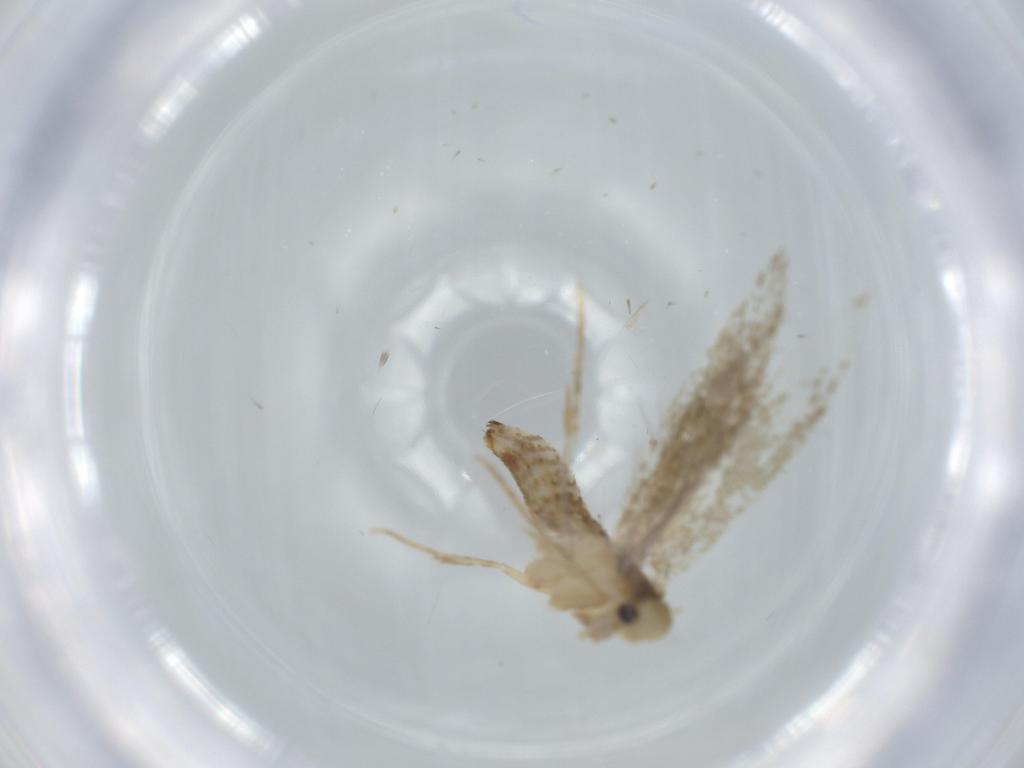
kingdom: Animalia
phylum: Arthropoda
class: Insecta
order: Lepidoptera
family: Tineidae
